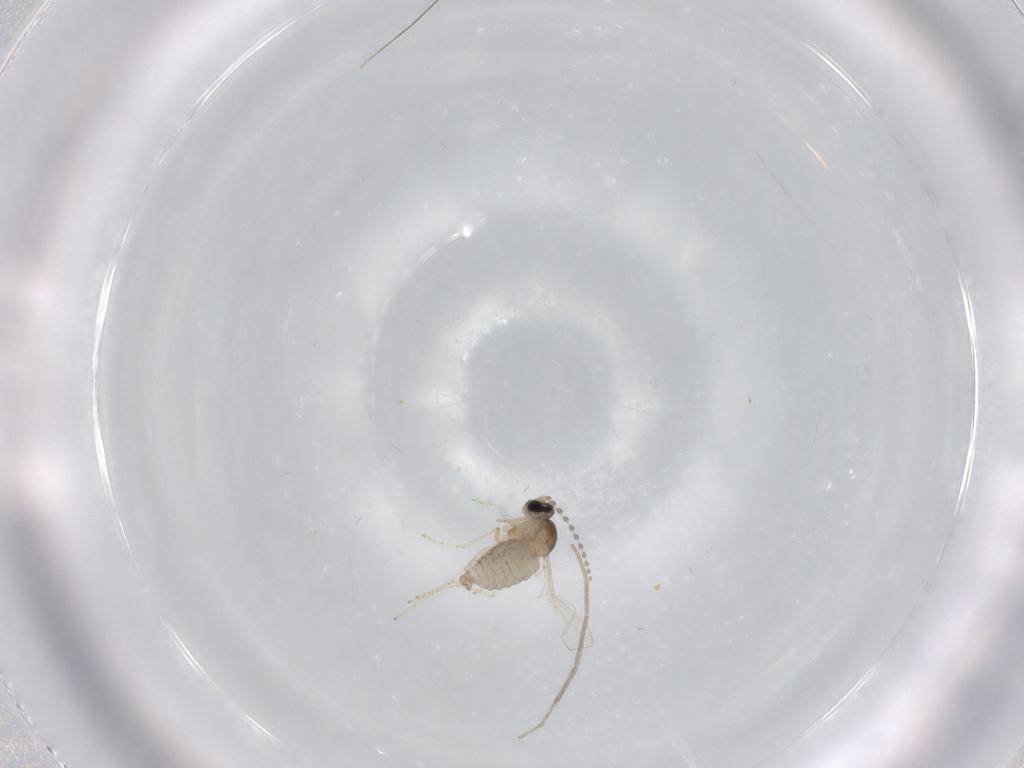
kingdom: Animalia
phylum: Arthropoda
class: Insecta
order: Diptera
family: Cecidomyiidae
